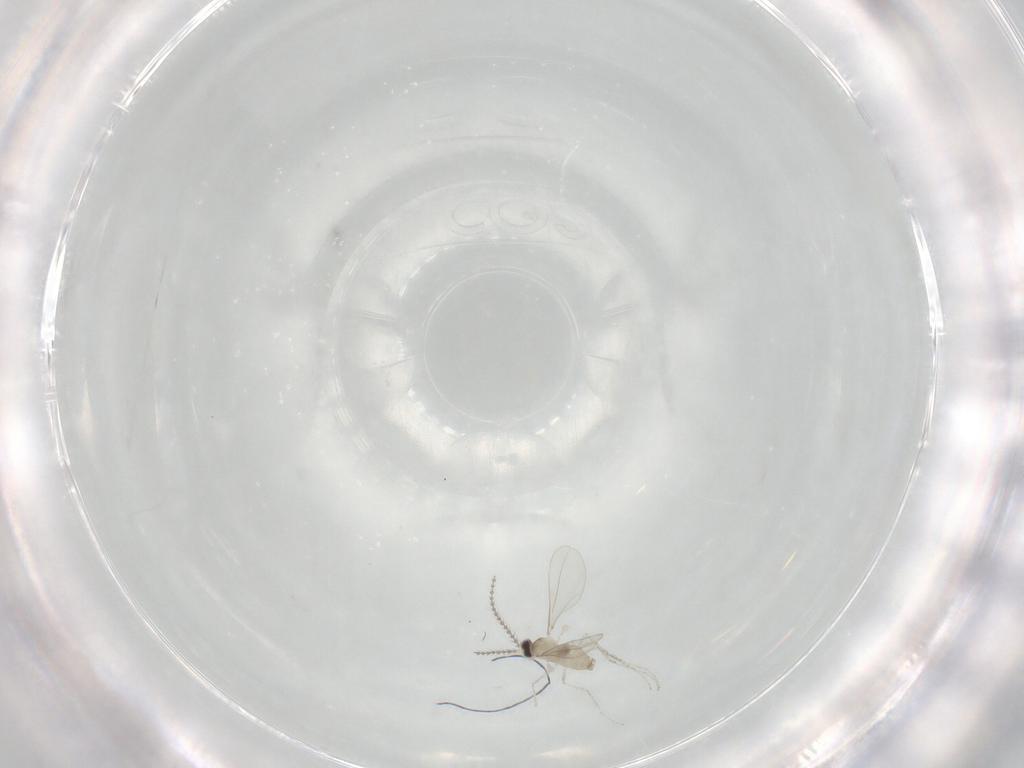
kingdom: Animalia
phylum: Arthropoda
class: Insecta
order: Diptera
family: Cecidomyiidae
